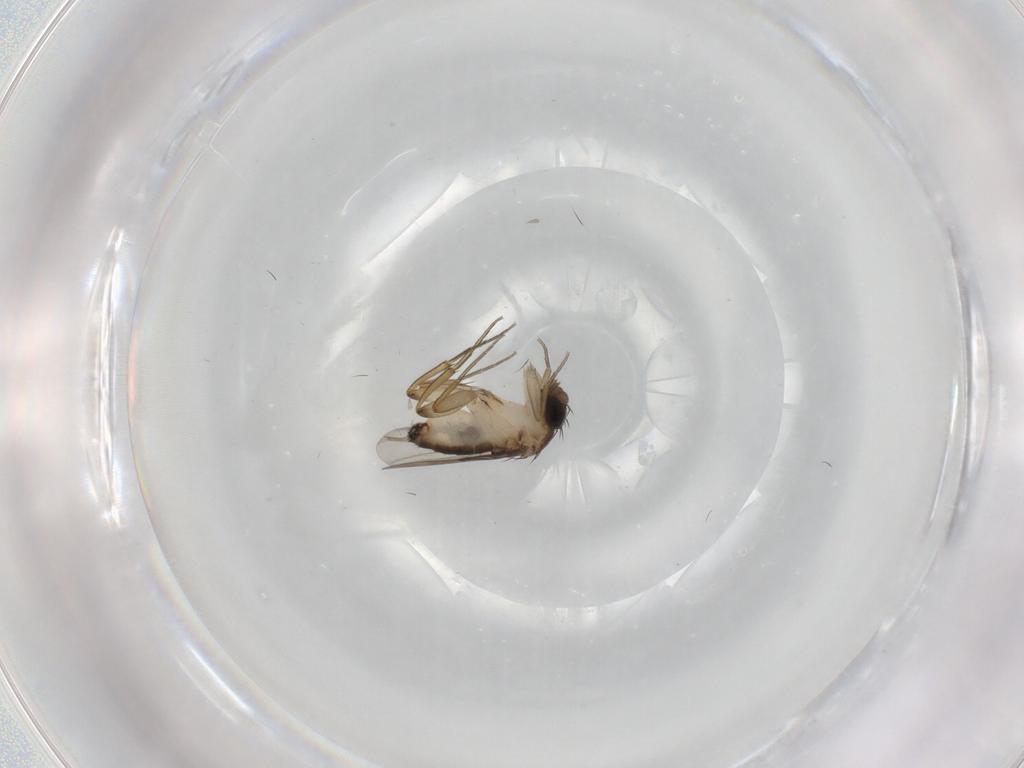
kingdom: Animalia
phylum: Arthropoda
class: Insecta
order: Diptera
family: Phoridae
